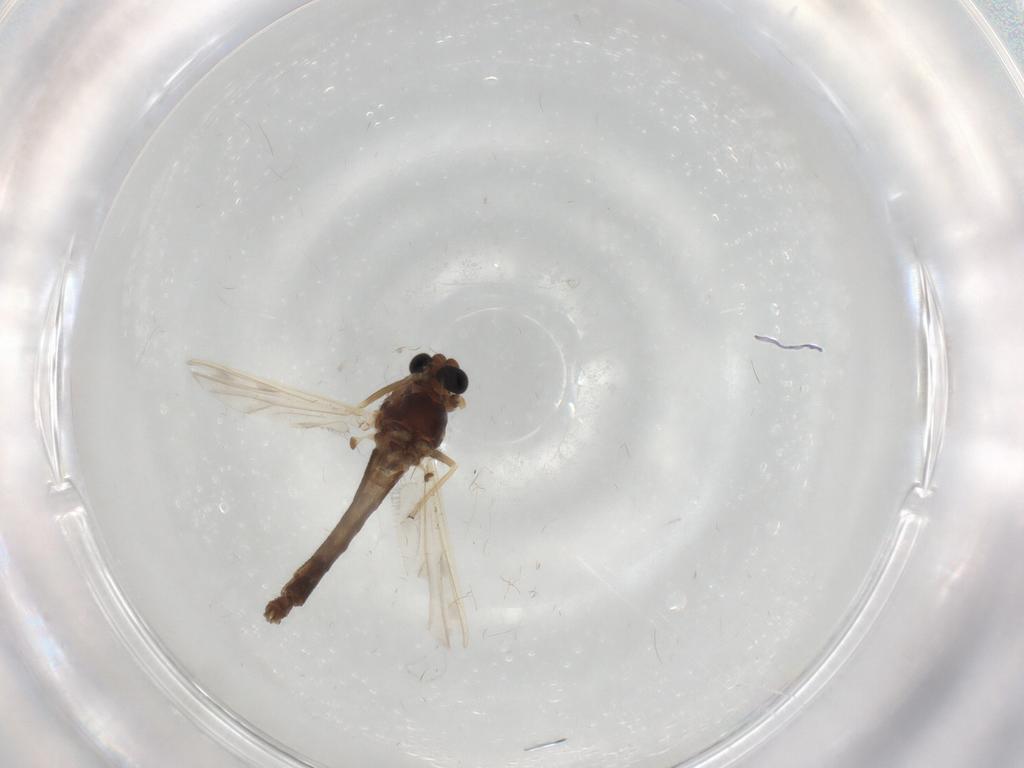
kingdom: Animalia
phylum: Arthropoda
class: Insecta
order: Diptera
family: Chironomidae
